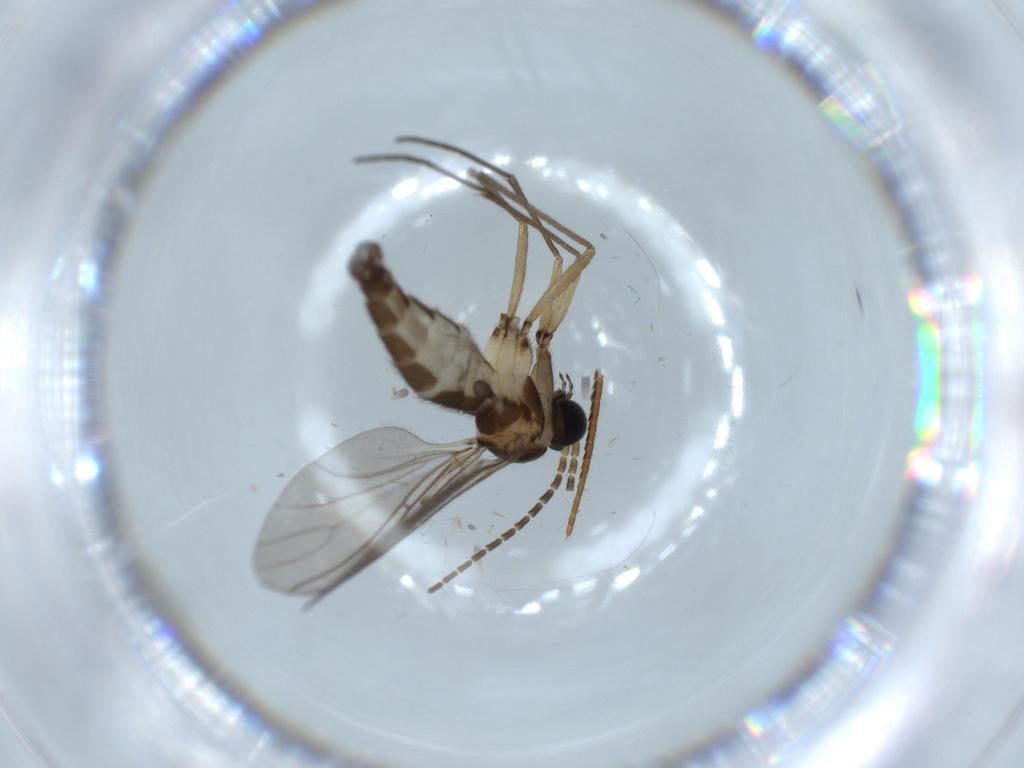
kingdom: Animalia
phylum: Arthropoda
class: Insecta
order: Diptera
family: Sciaridae
